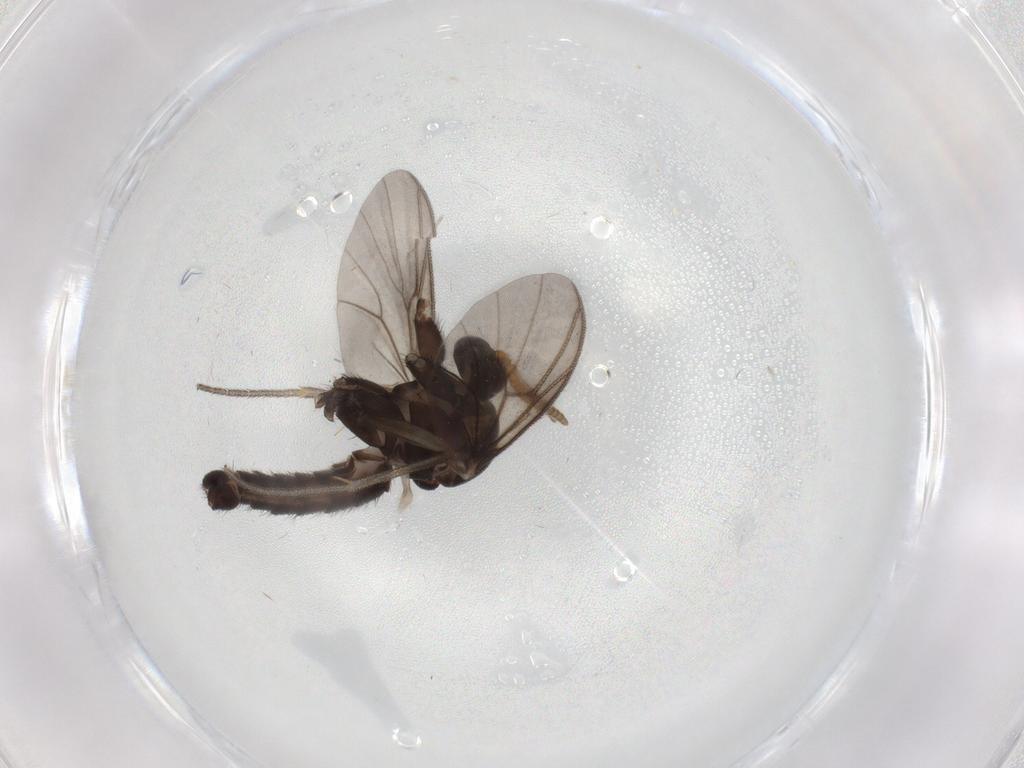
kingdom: Animalia
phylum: Arthropoda
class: Insecta
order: Diptera
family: Mycetophilidae
